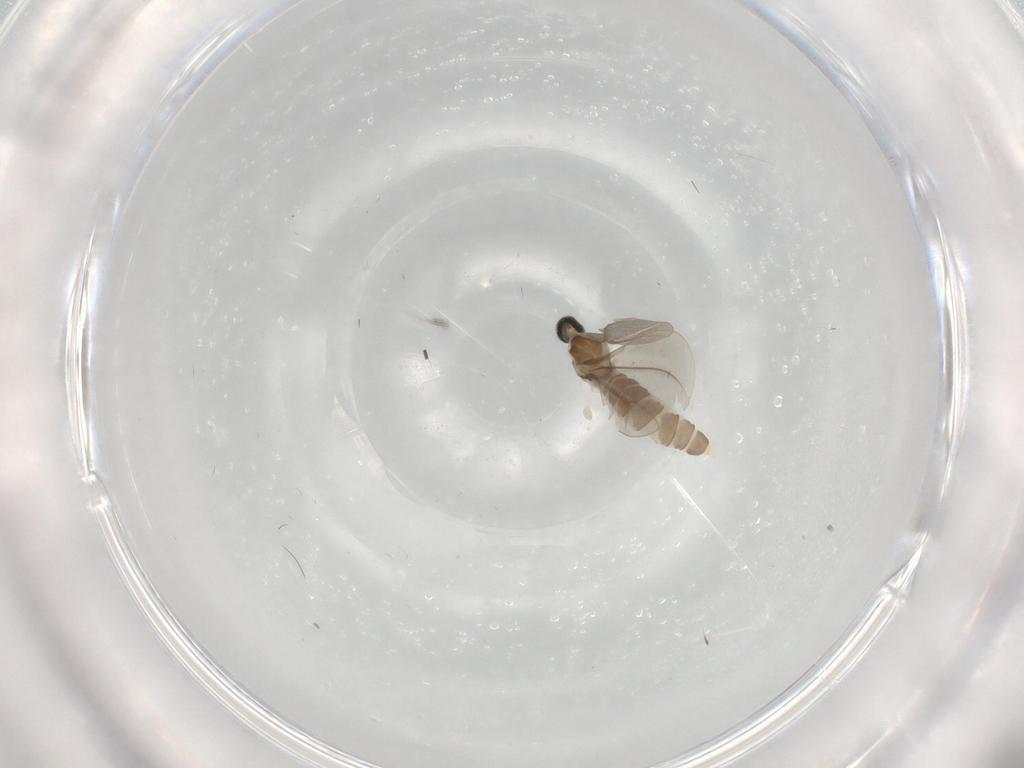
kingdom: Animalia
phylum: Arthropoda
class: Insecta
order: Diptera
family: Cecidomyiidae
